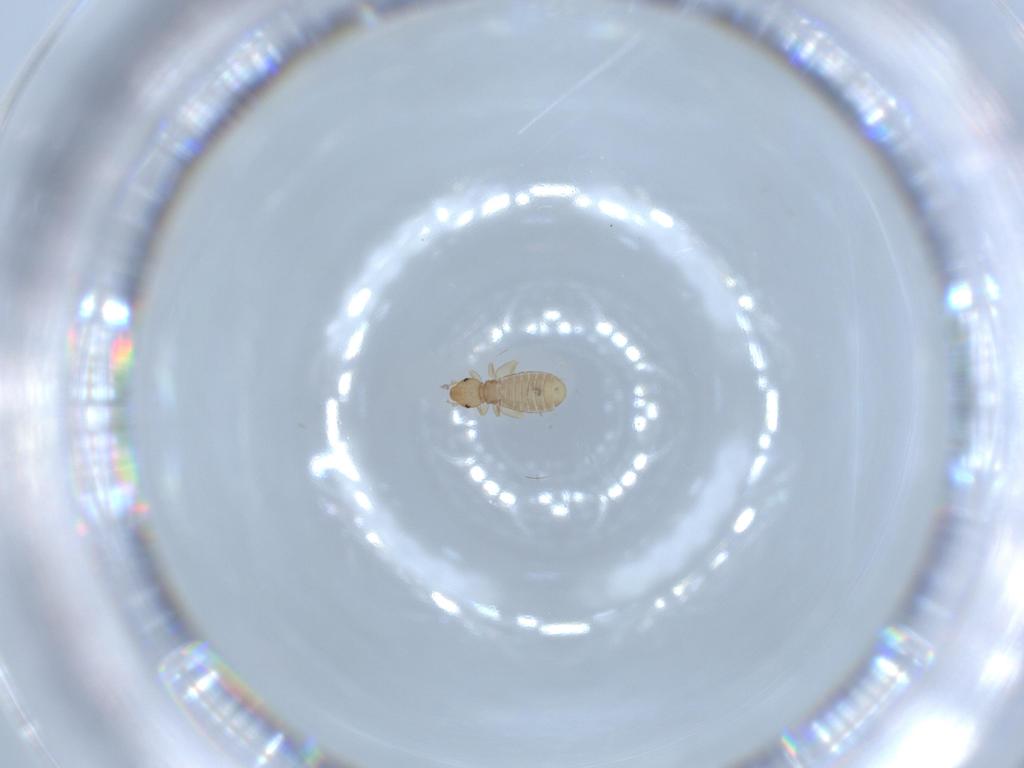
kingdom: Animalia
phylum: Arthropoda
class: Insecta
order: Psocodea
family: Liposcelididae
